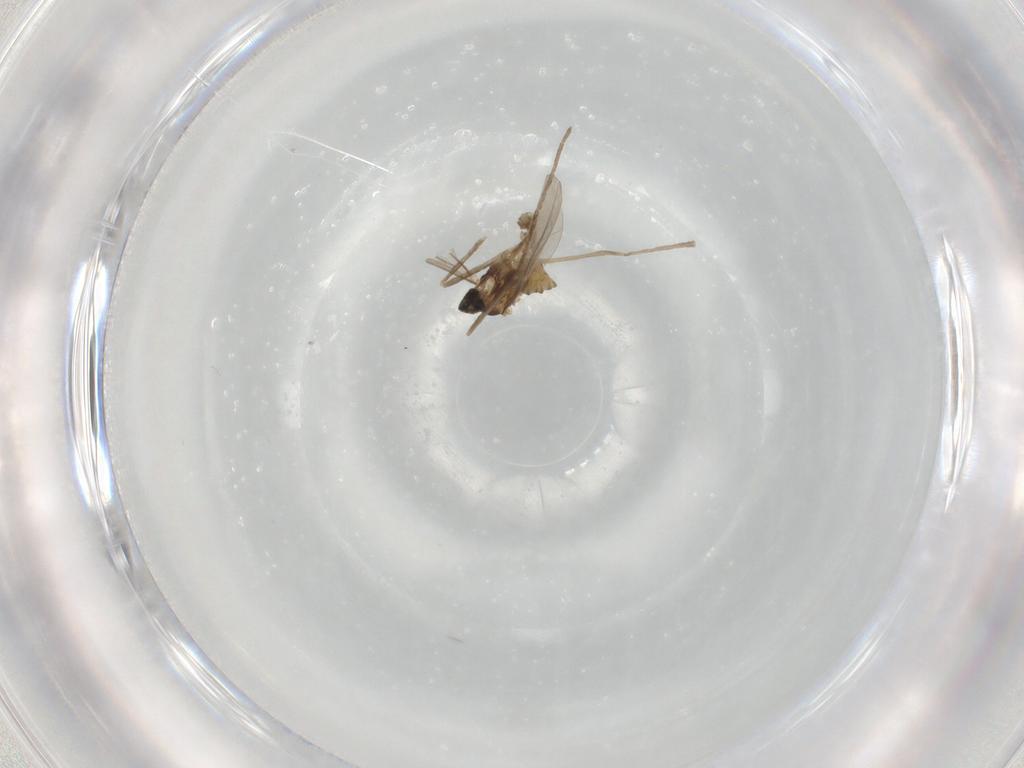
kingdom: Animalia
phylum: Arthropoda
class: Insecta
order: Diptera
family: Cecidomyiidae
